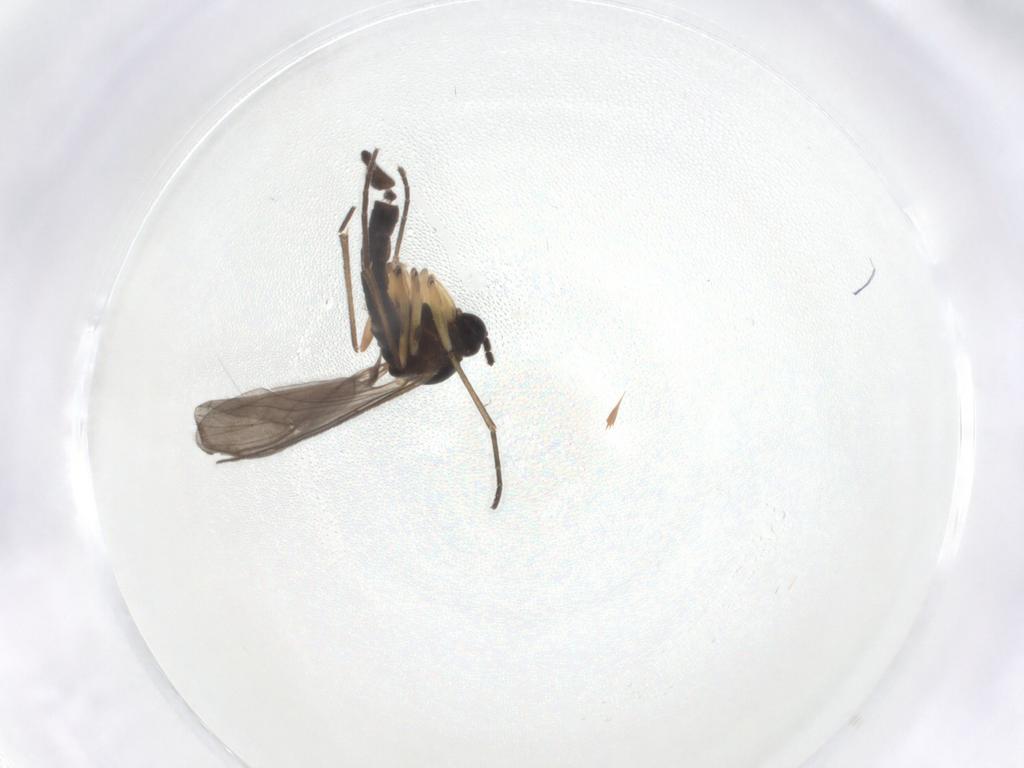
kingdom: Animalia
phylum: Arthropoda
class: Insecta
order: Diptera
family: Sciaridae
